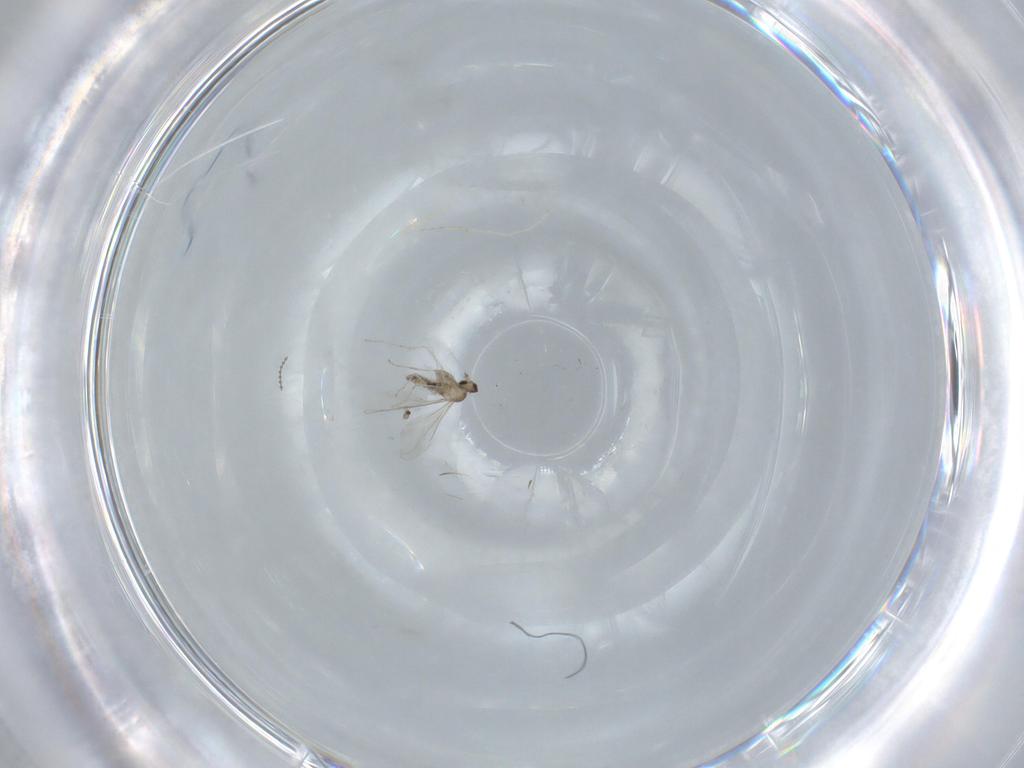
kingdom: Animalia
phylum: Arthropoda
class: Insecta
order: Diptera
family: Cecidomyiidae
